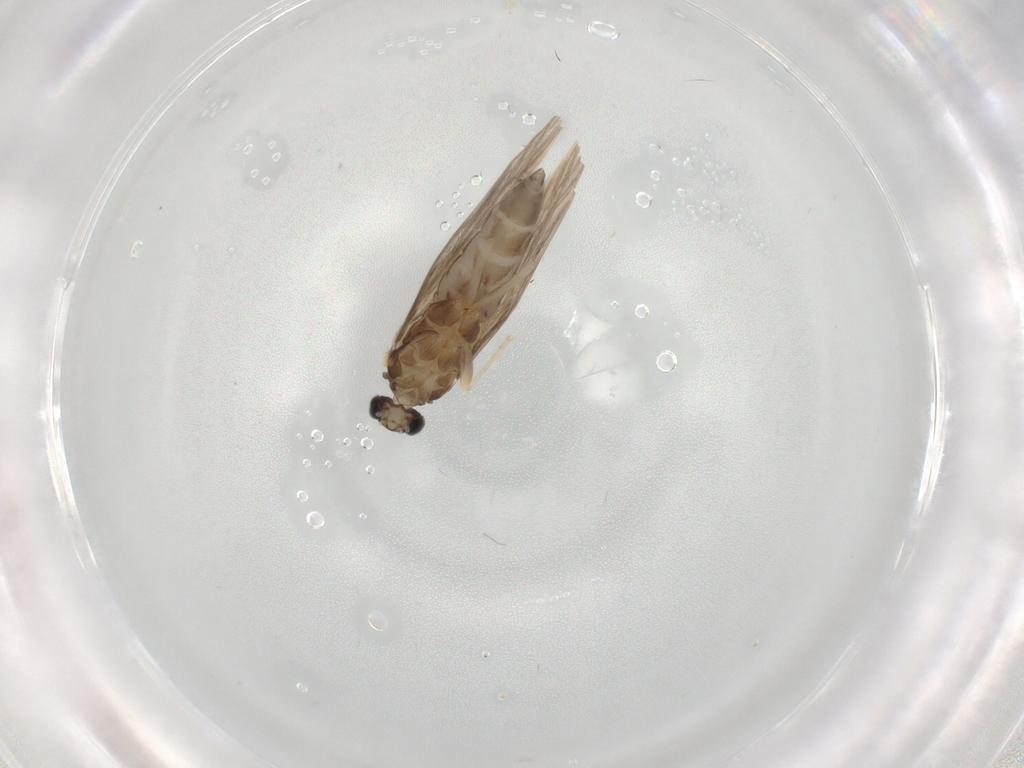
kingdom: Animalia
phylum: Arthropoda
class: Insecta
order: Trichoptera
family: Hydroptilidae
